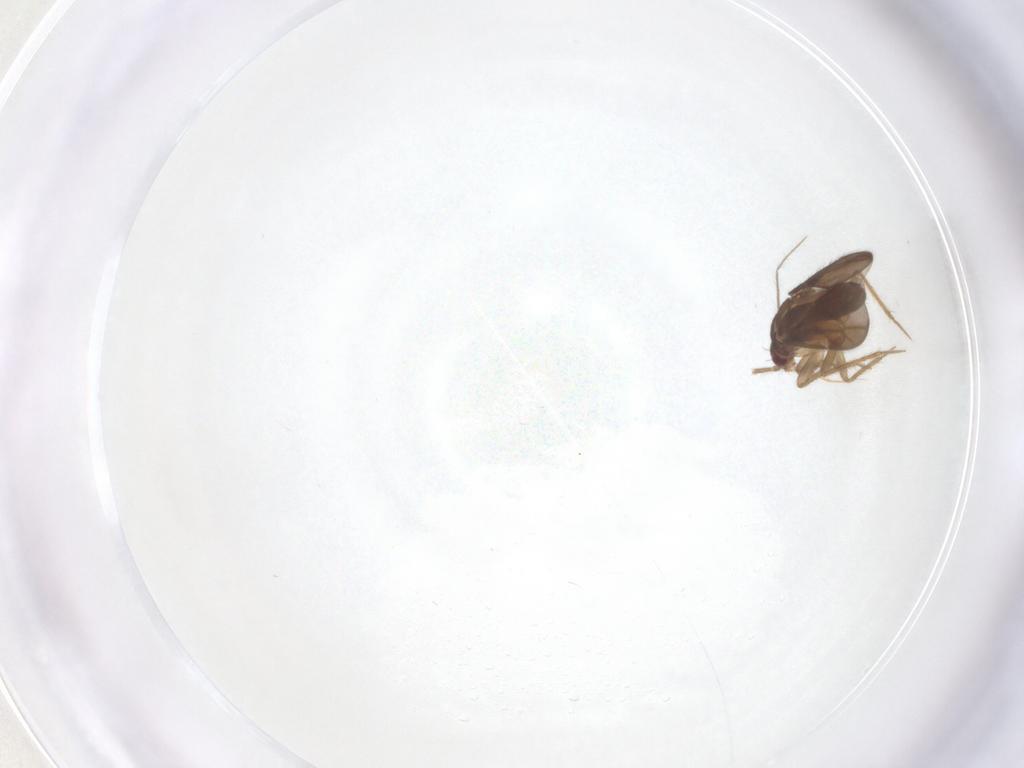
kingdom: Animalia
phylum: Arthropoda
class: Insecta
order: Hemiptera
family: Ceratocombidae
